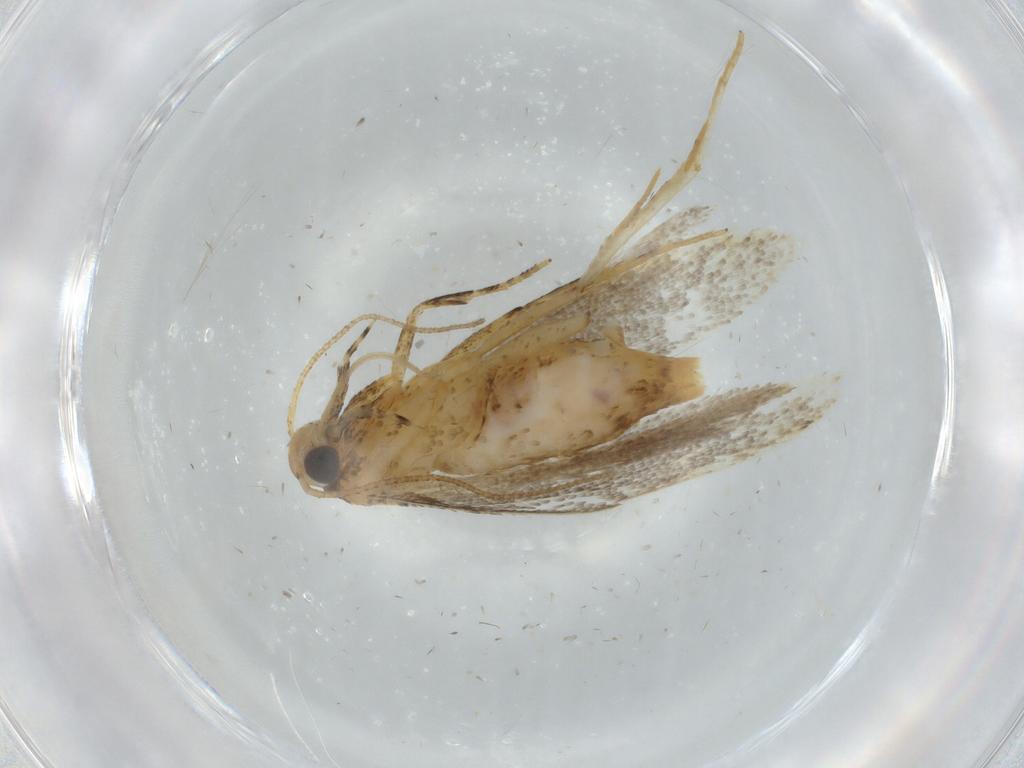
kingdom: Animalia
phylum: Arthropoda
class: Insecta
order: Lepidoptera
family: Gelechiidae
